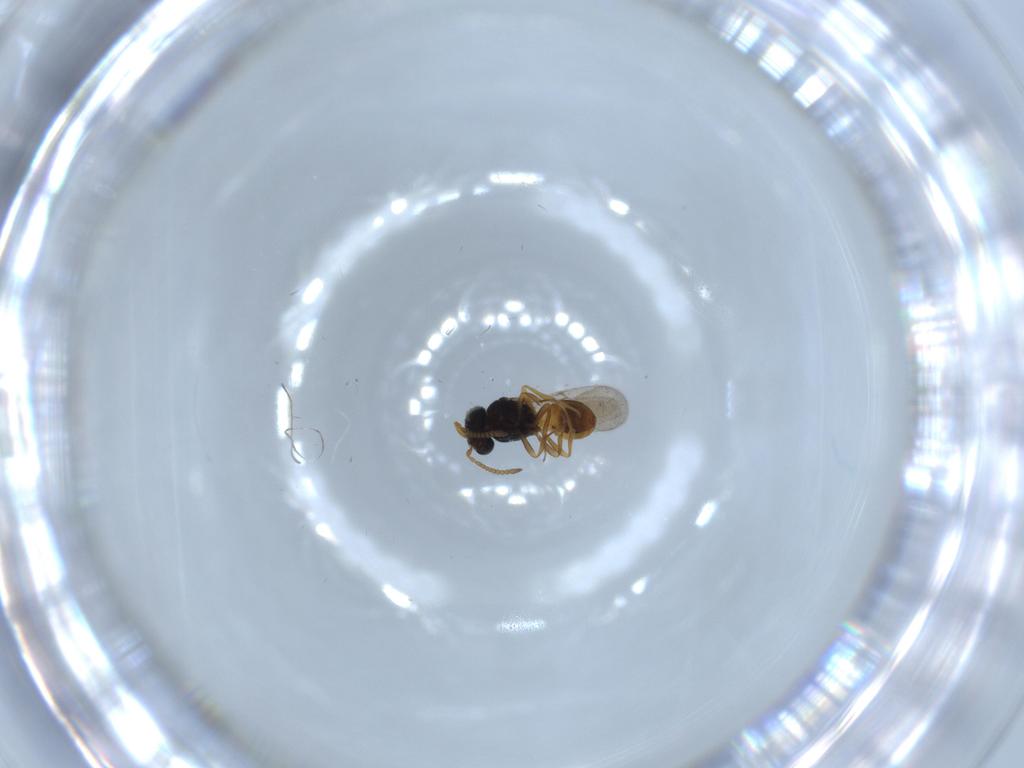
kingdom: Animalia
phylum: Arthropoda
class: Insecta
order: Hymenoptera
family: Scelionidae
